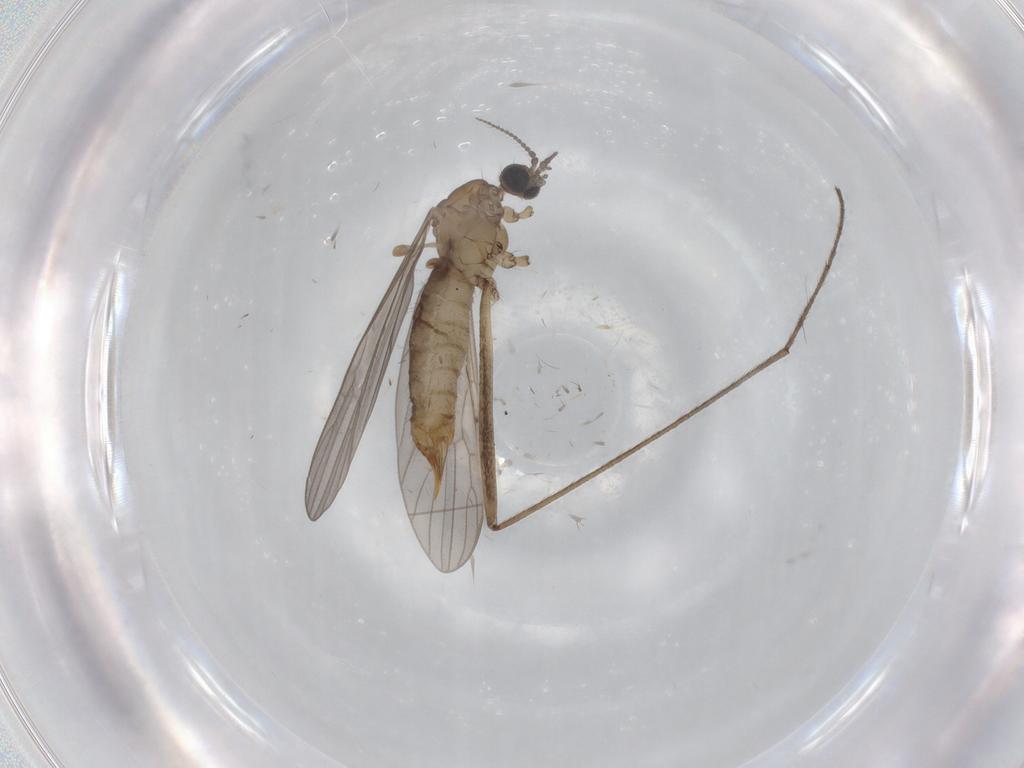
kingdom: Animalia
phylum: Arthropoda
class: Insecta
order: Diptera
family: Limoniidae
